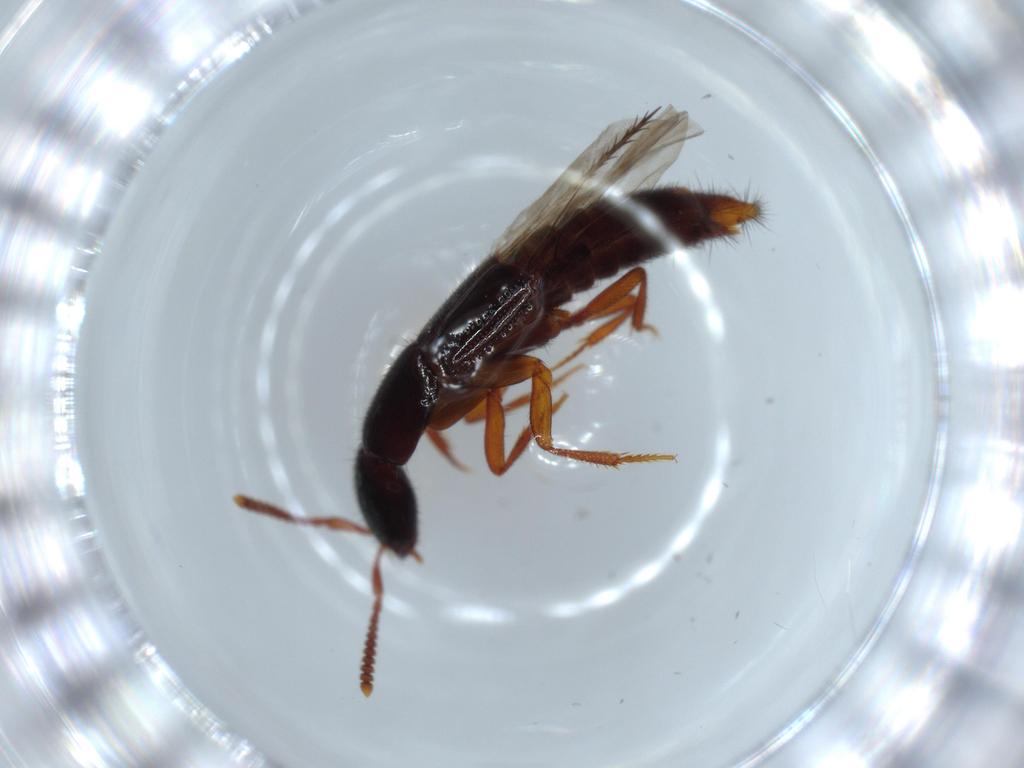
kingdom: Animalia
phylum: Arthropoda
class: Insecta
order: Coleoptera
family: Staphylinidae
